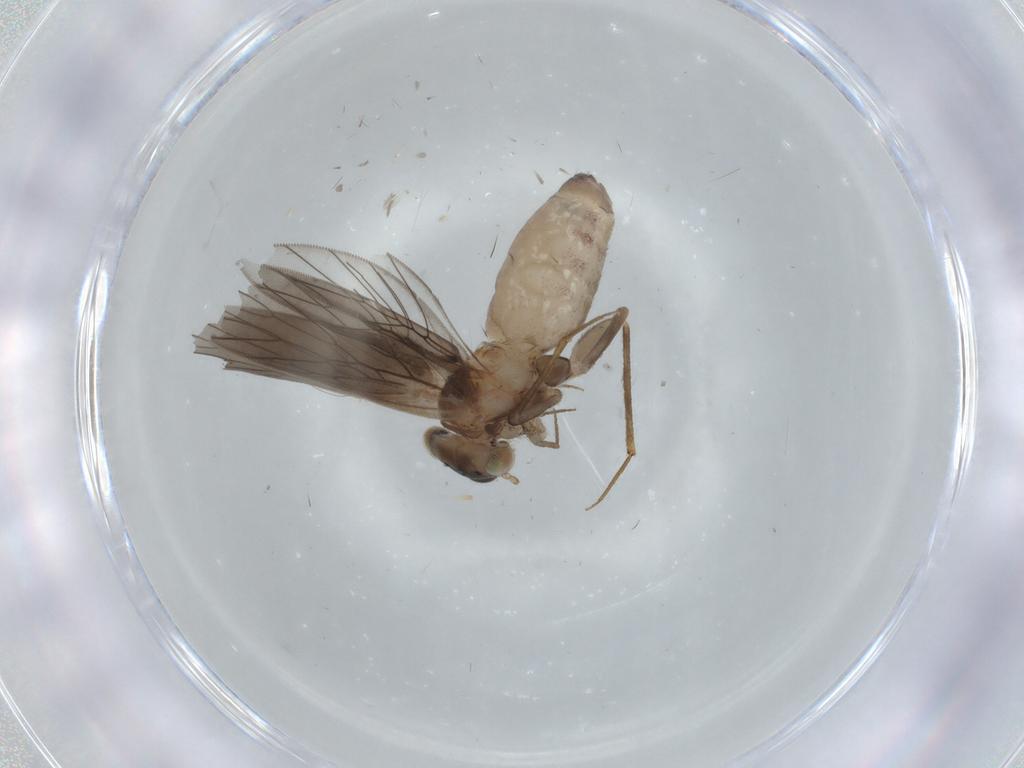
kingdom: Animalia
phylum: Arthropoda
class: Insecta
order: Psocodea
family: Lepidopsocidae
